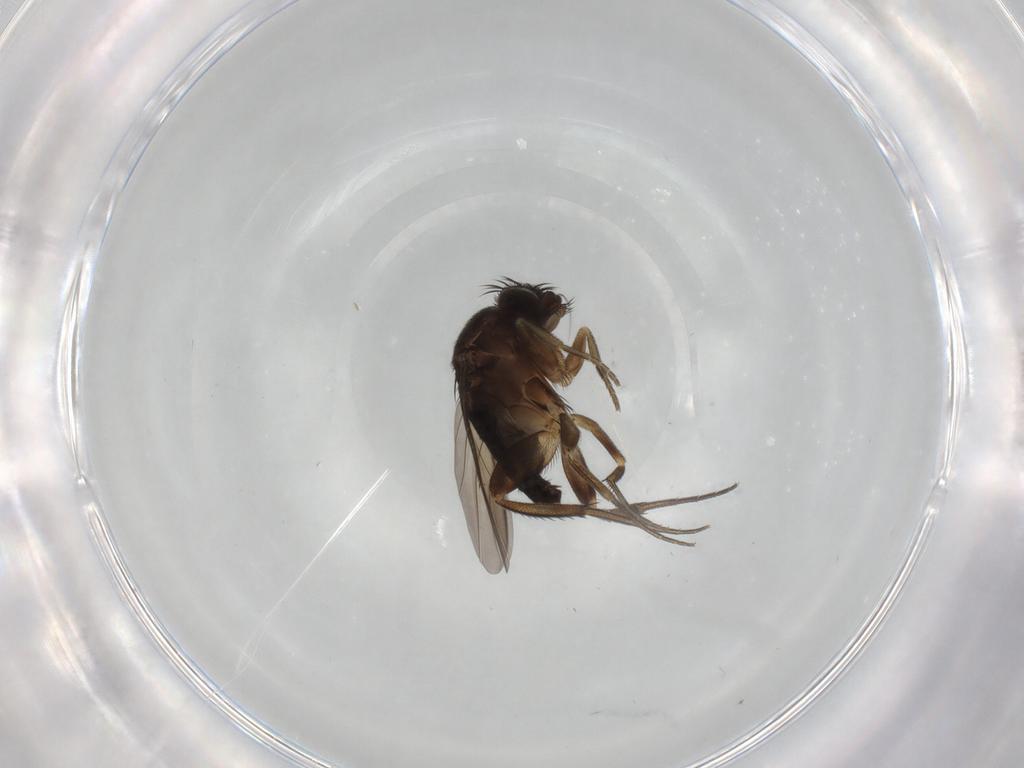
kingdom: Animalia
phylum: Arthropoda
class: Insecta
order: Diptera
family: Phoridae
